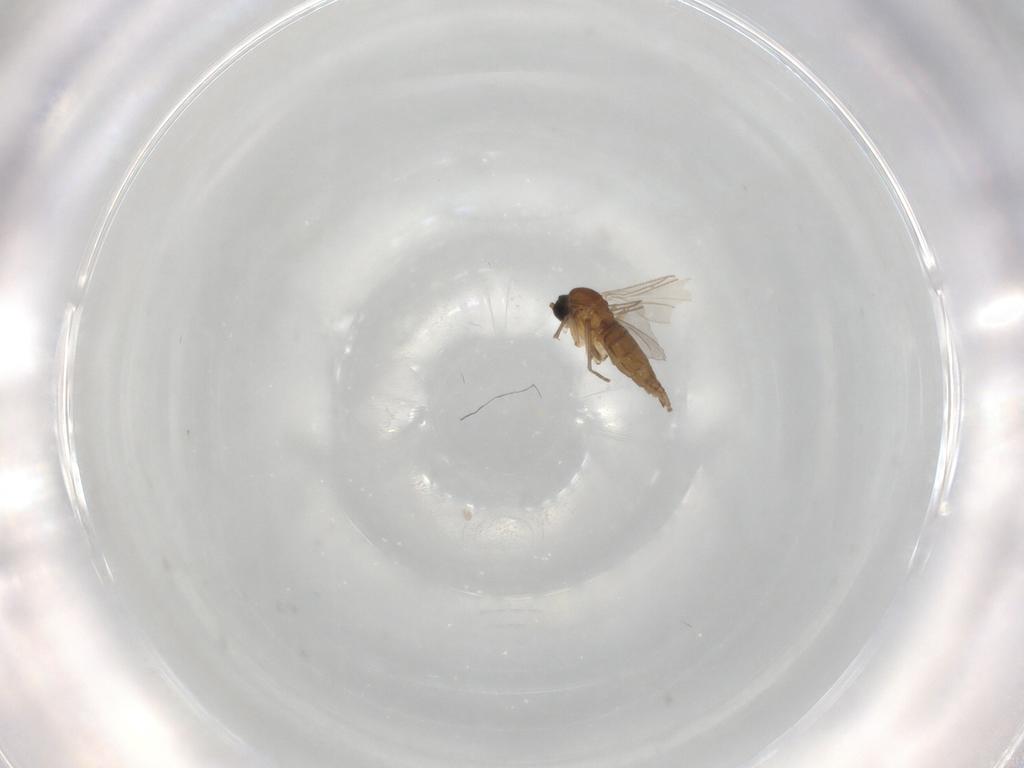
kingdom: Animalia
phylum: Arthropoda
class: Insecta
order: Diptera
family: Sciaridae
